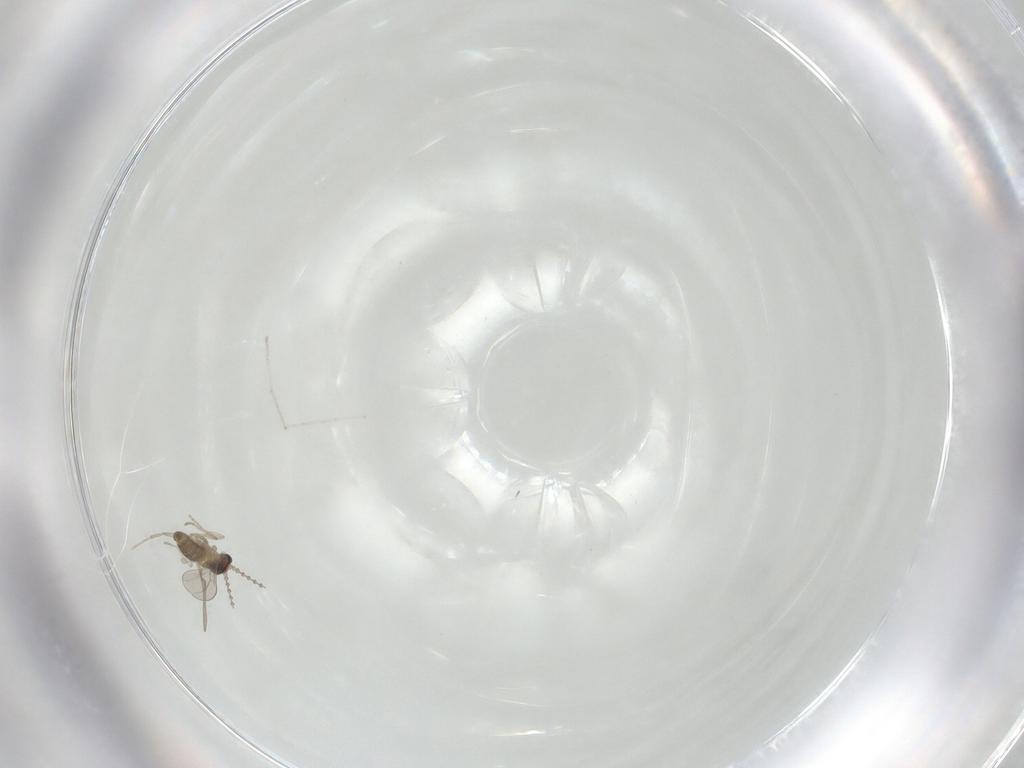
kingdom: Animalia
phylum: Arthropoda
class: Insecta
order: Diptera
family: Cecidomyiidae
